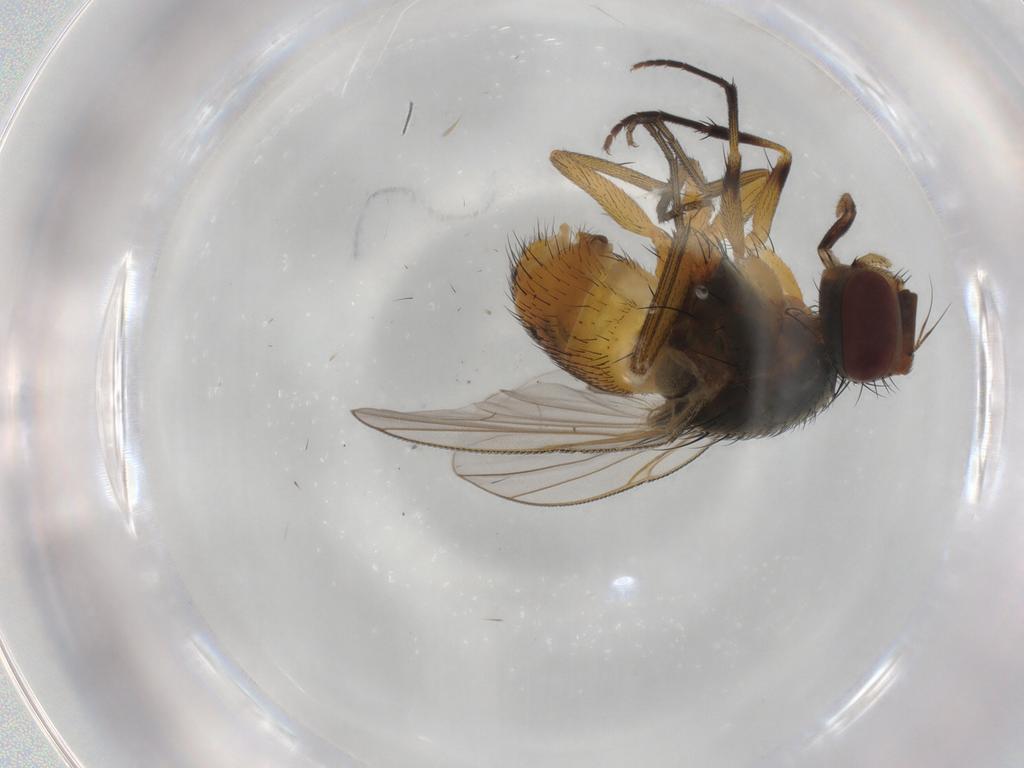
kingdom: Animalia
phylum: Arthropoda
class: Insecta
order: Diptera
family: Muscidae
